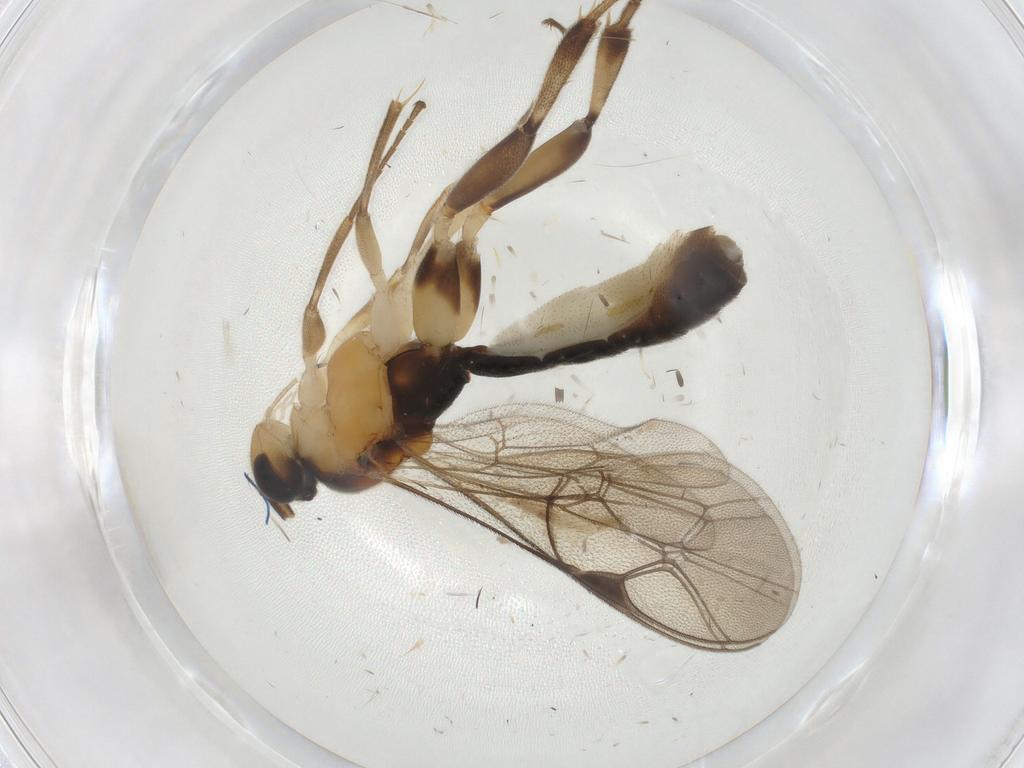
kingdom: Animalia
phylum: Arthropoda
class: Insecta
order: Hymenoptera
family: Ichneumonidae
